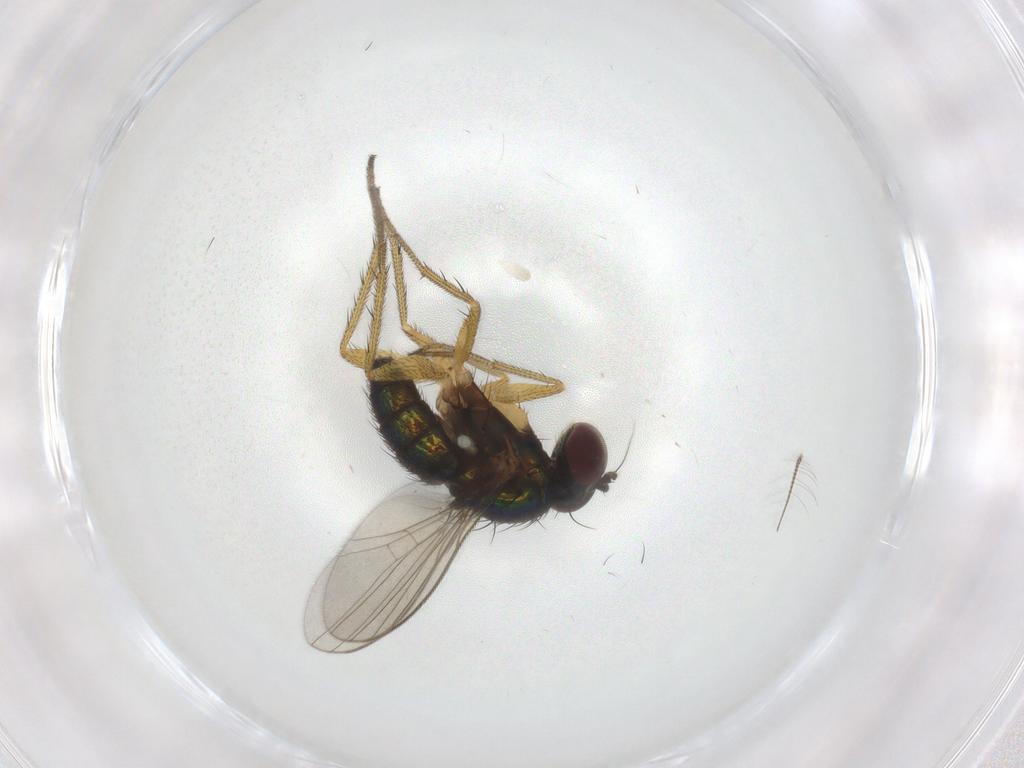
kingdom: Animalia
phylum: Arthropoda
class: Insecta
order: Diptera
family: Dolichopodidae
